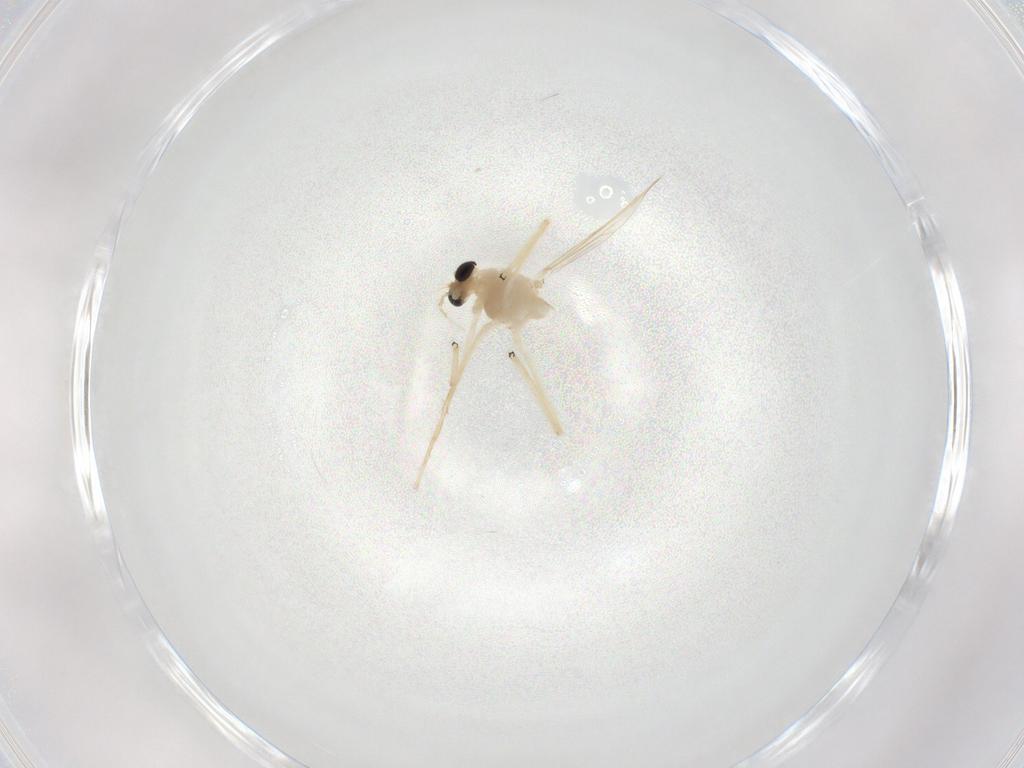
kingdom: Animalia
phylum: Arthropoda
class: Insecta
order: Diptera
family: Chironomidae
